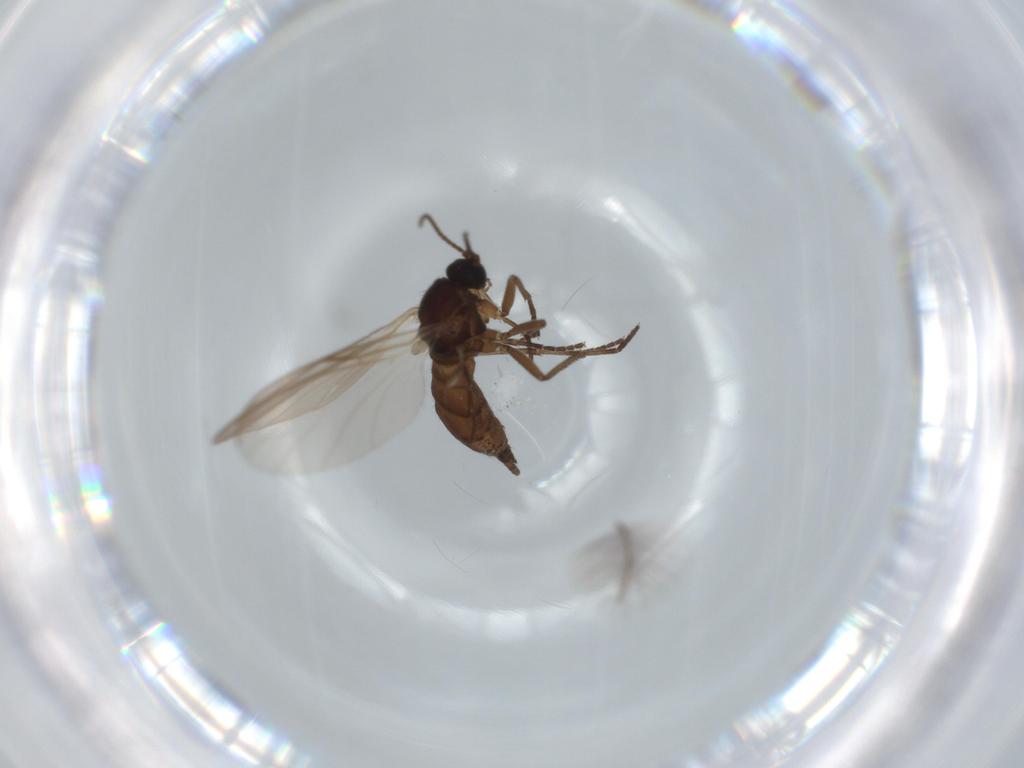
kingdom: Animalia
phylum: Arthropoda
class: Insecta
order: Diptera
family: Sciaridae
